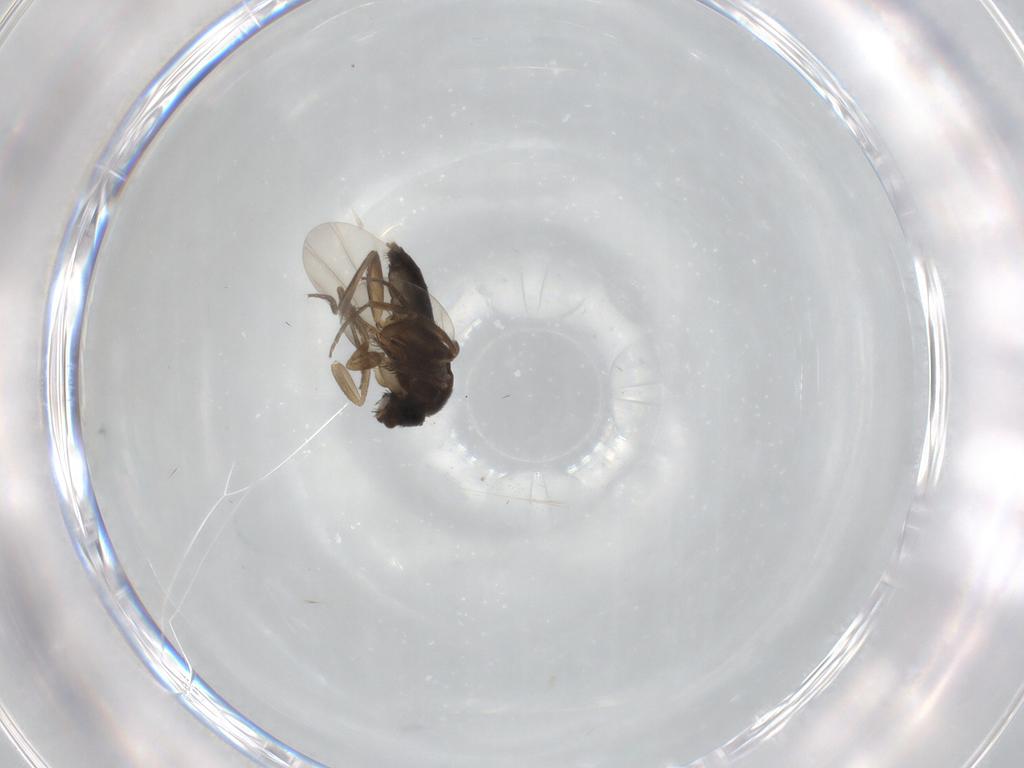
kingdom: Animalia
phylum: Arthropoda
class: Insecta
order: Diptera
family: Phoridae
